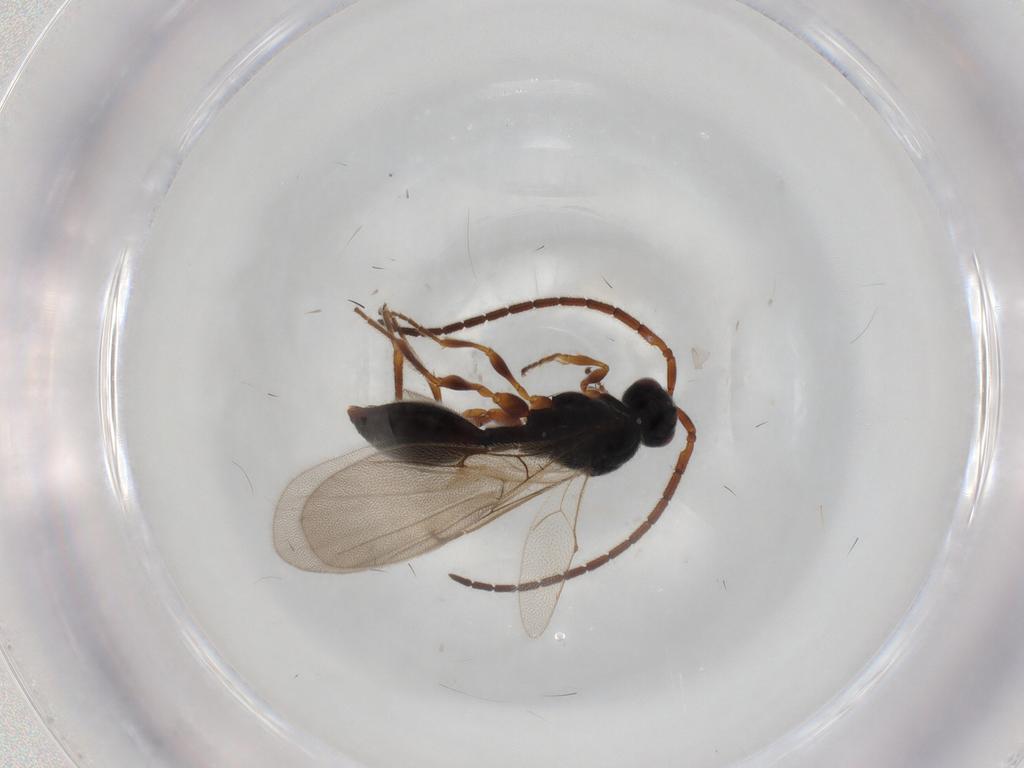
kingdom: Animalia
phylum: Arthropoda
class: Insecta
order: Hymenoptera
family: Diapriidae
